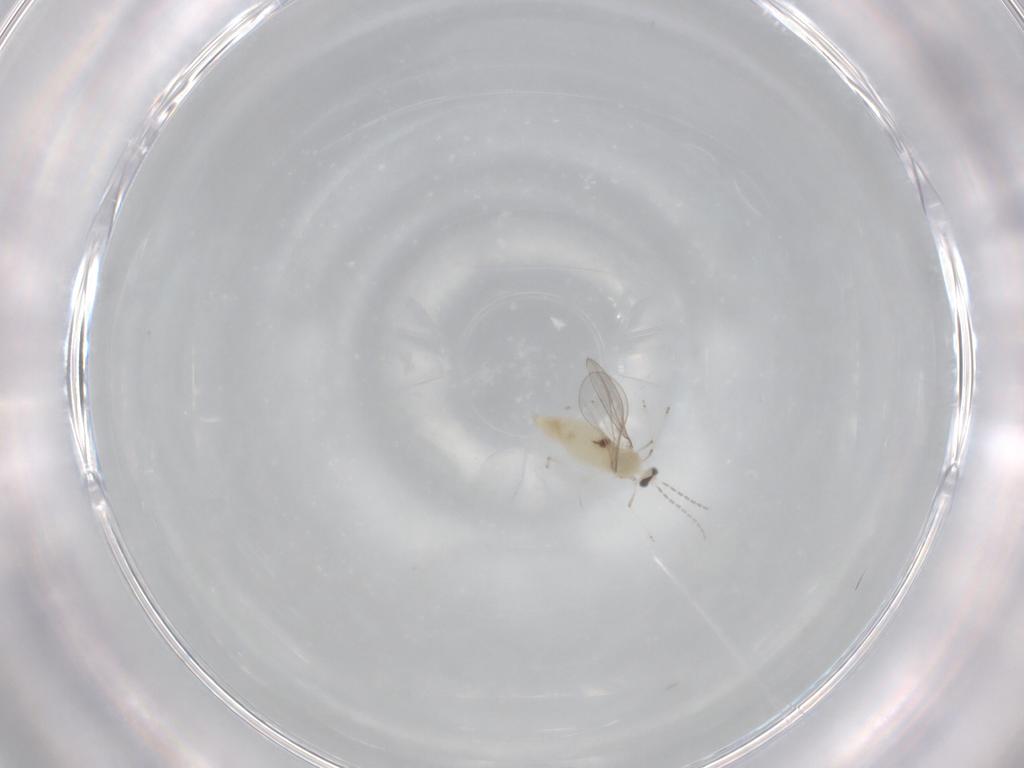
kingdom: Animalia
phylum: Arthropoda
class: Insecta
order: Diptera
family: Cecidomyiidae
